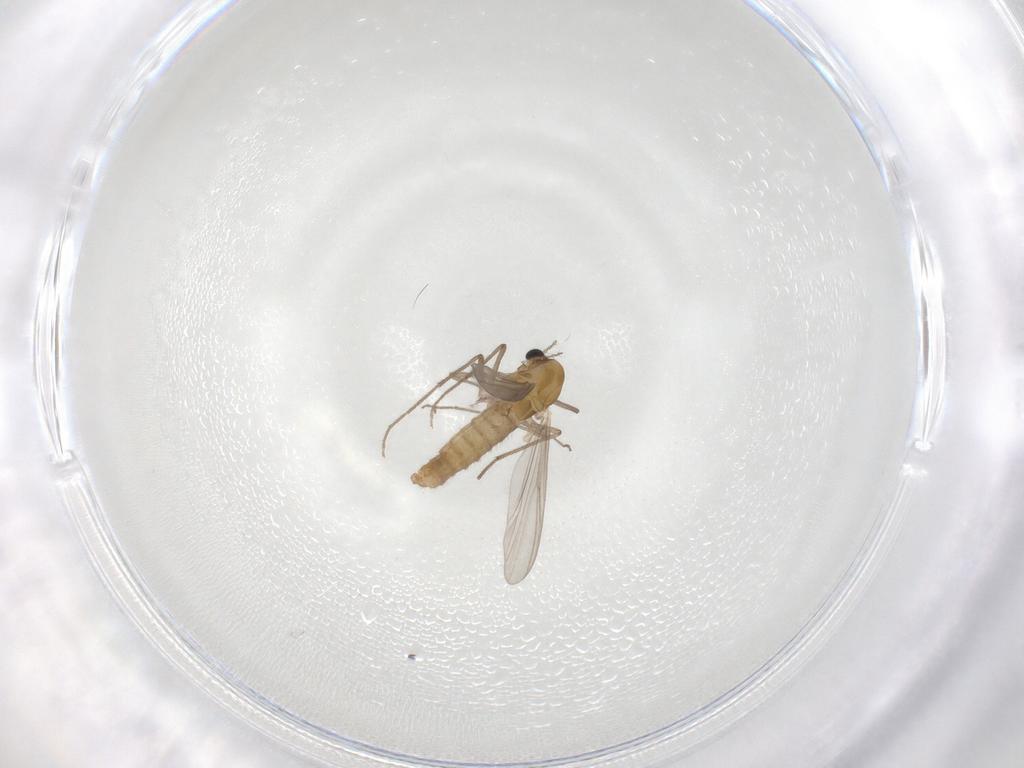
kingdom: Animalia
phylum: Arthropoda
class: Insecta
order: Diptera
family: Chironomidae
